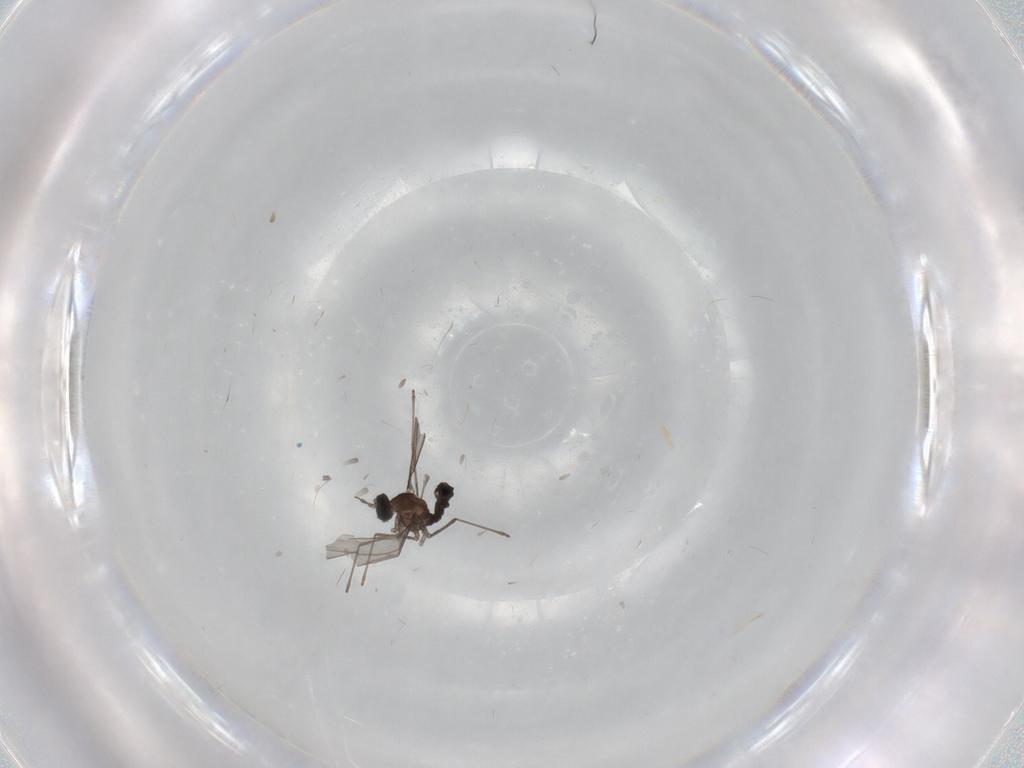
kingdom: Animalia
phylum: Arthropoda
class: Insecta
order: Diptera
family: Cecidomyiidae
